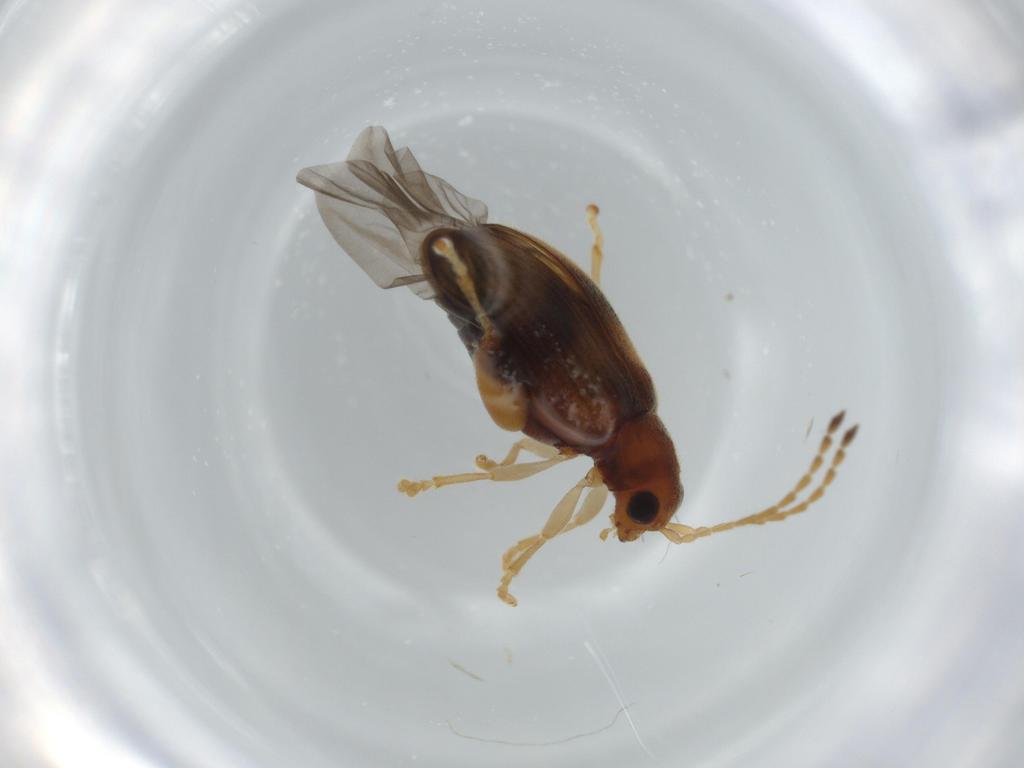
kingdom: Animalia
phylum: Arthropoda
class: Insecta
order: Coleoptera
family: Chrysomelidae
